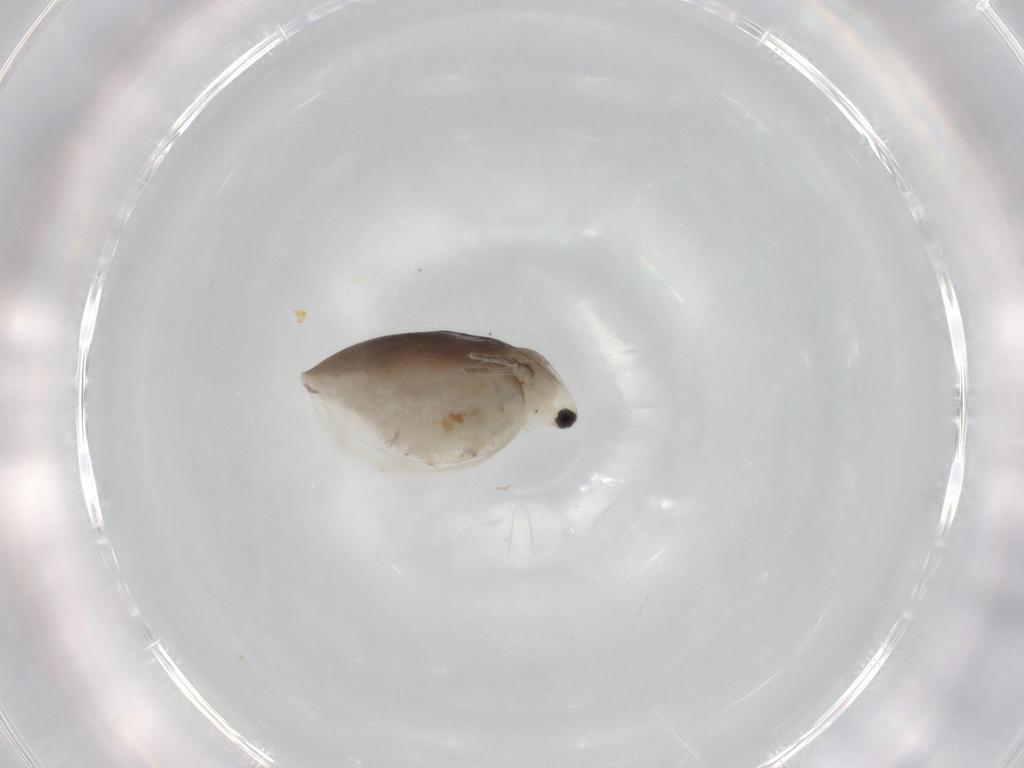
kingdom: Animalia
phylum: Arthropoda
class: Branchiopoda
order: Diplostraca
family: Daphniidae
